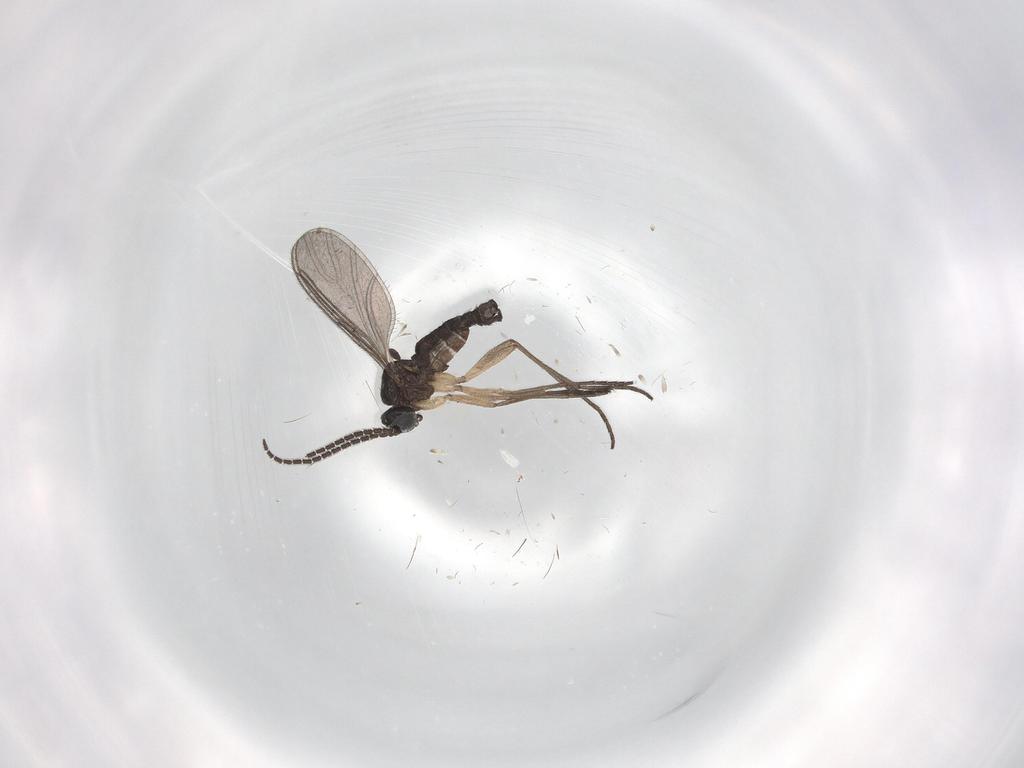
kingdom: Animalia
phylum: Arthropoda
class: Insecta
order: Diptera
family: Sciaridae
